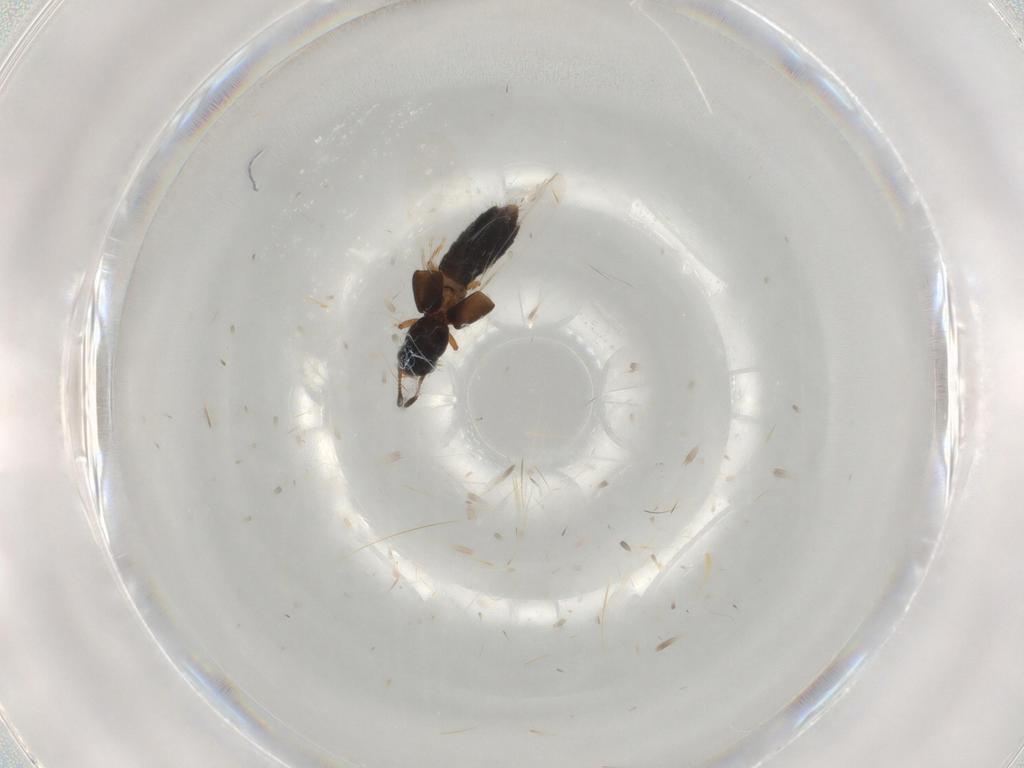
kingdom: Animalia
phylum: Arthropoda
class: Insecta
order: Coleoptera
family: Staphylinidae
